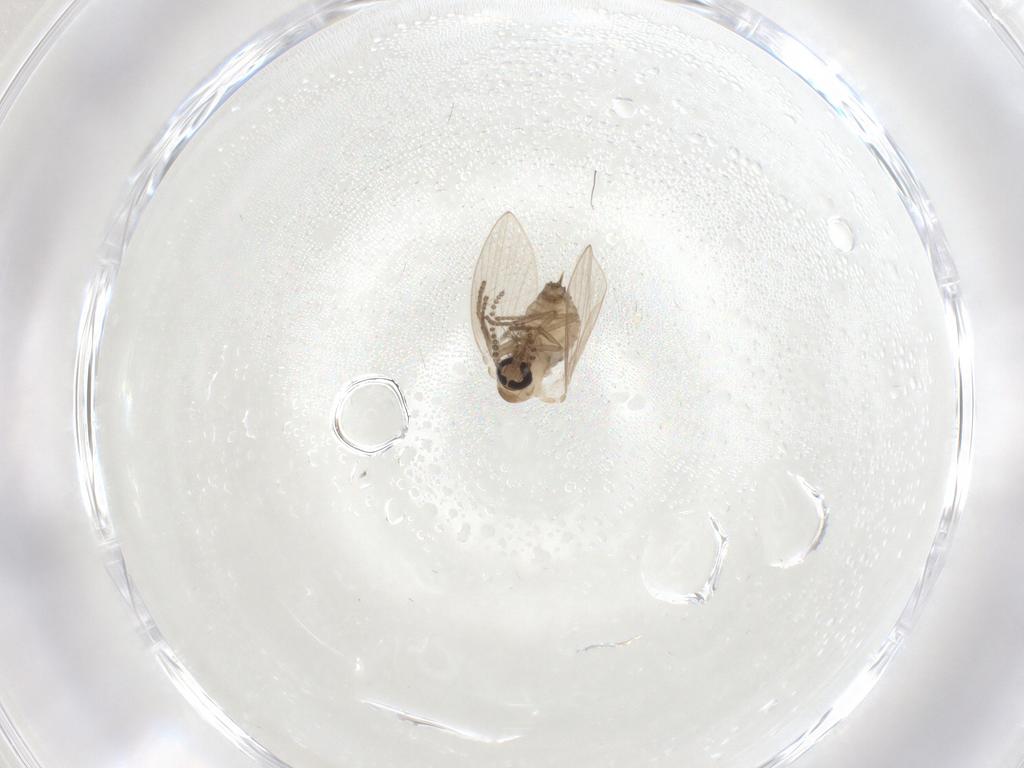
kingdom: Animalia
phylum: Arthropoda
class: Insecta
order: Diptera
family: Psychodidae
